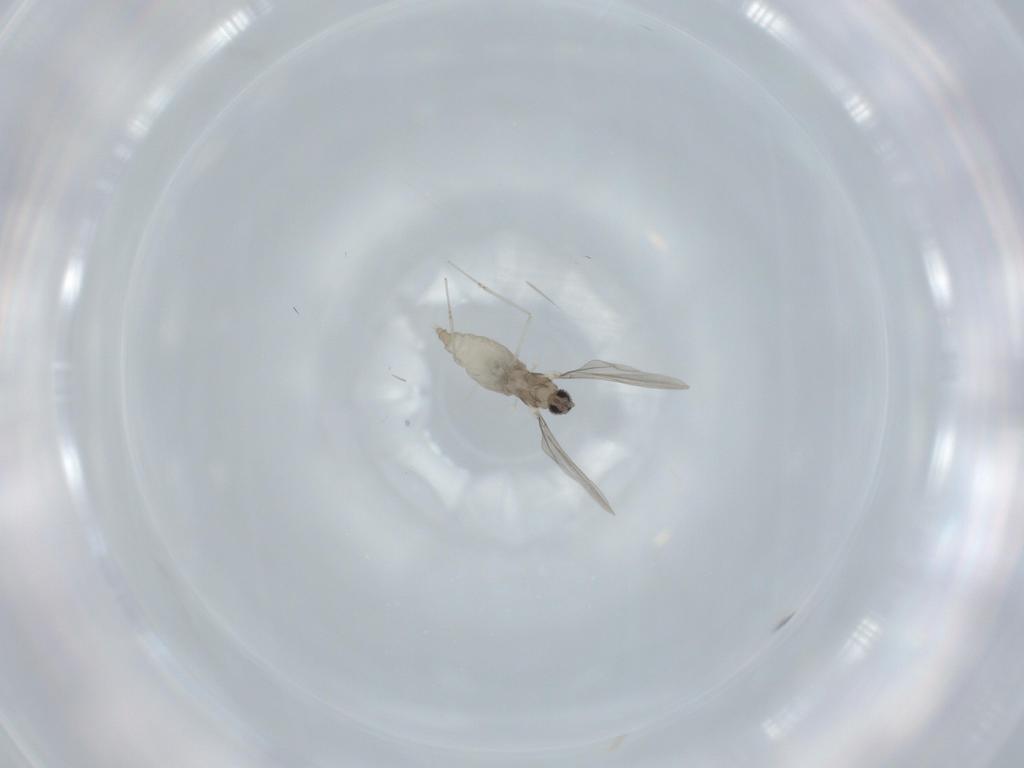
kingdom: Animalia
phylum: Arthropoda
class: Insecta
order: Diptera
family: Cecidomyiidae
